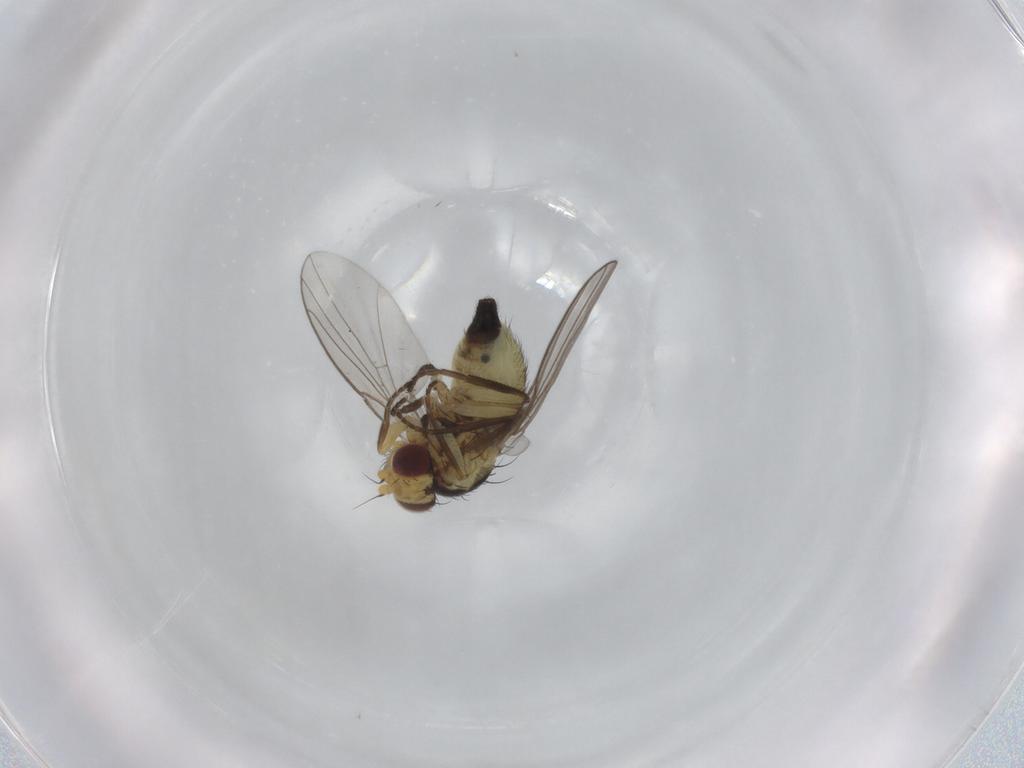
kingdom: Animalia
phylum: Arthropoda
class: Insecta
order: Diptera
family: Agromyzidae
